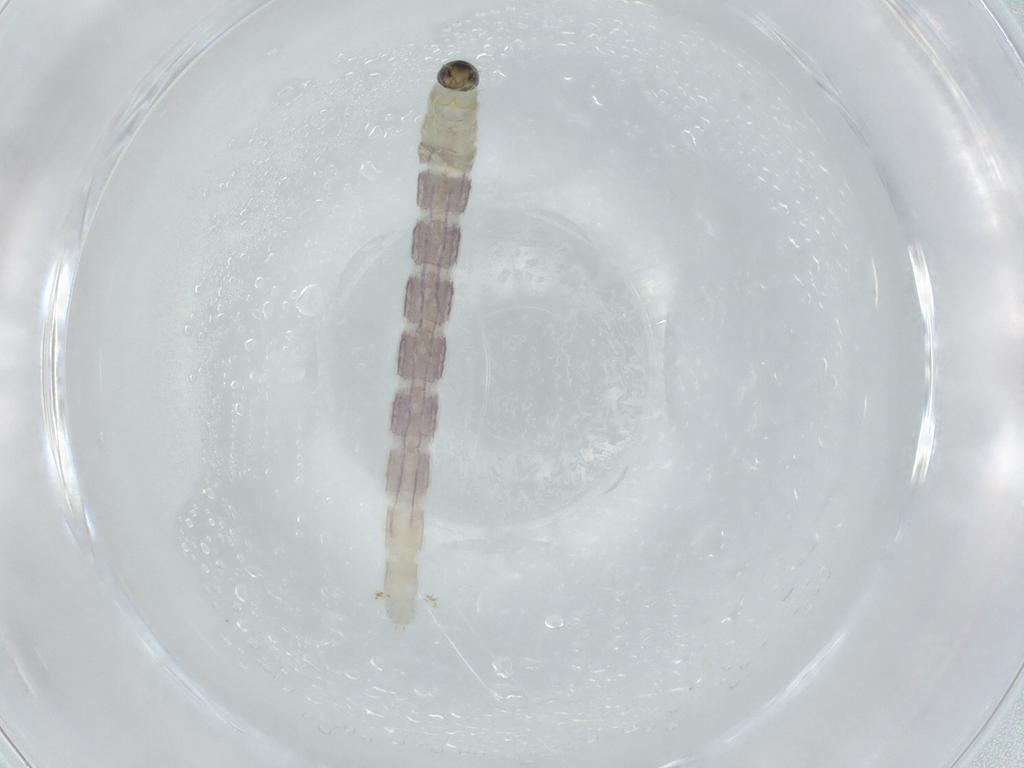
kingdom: Animalia
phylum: Arthropoda
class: Insecta
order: Diptera
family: Chironomidae
